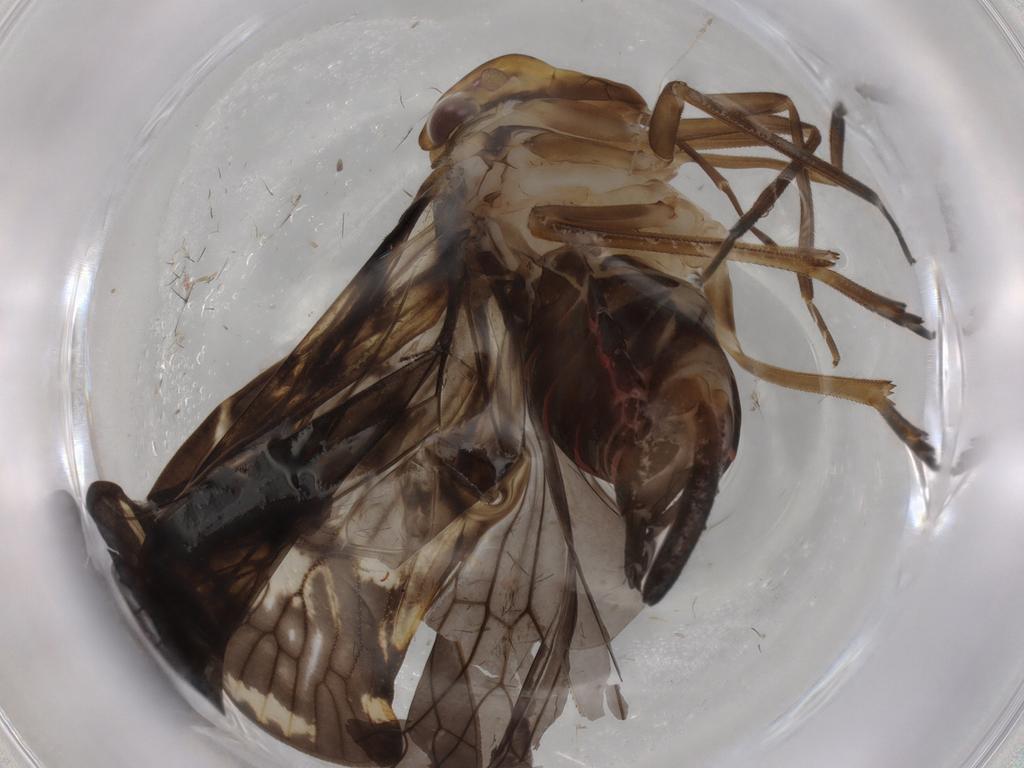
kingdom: Animalia
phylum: Arthropoda
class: Insecta
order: Hemiptera
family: Cixiidae
